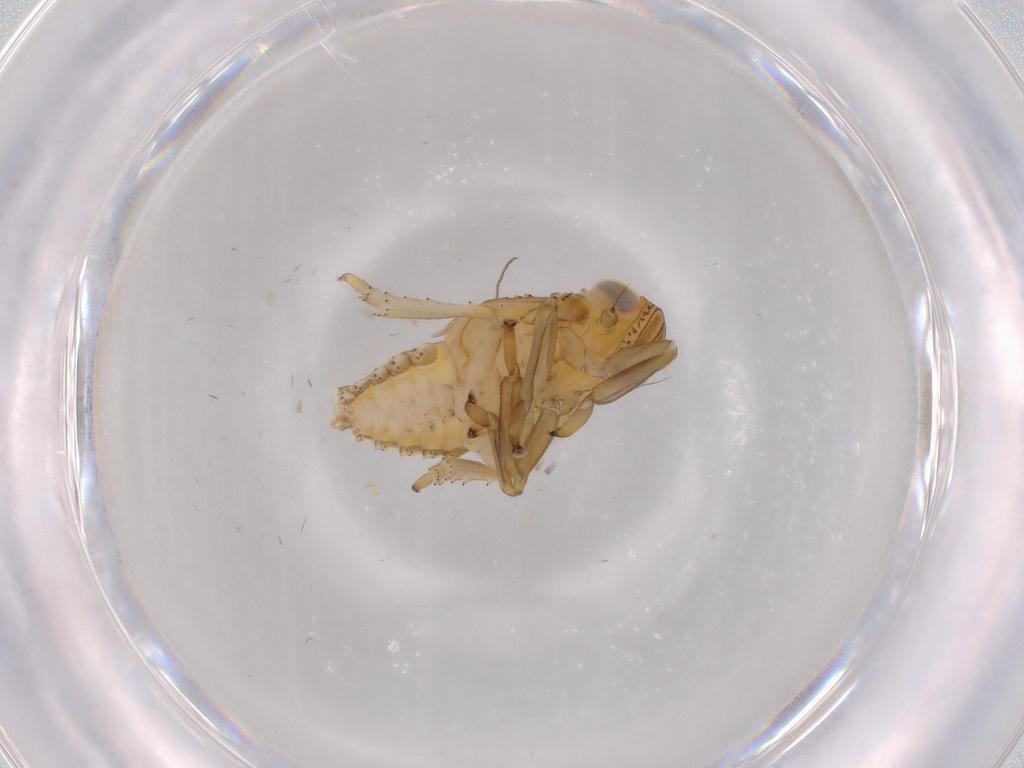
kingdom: Animalia
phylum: Arthropoda
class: Insecta
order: Hemiptera
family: Issidae
